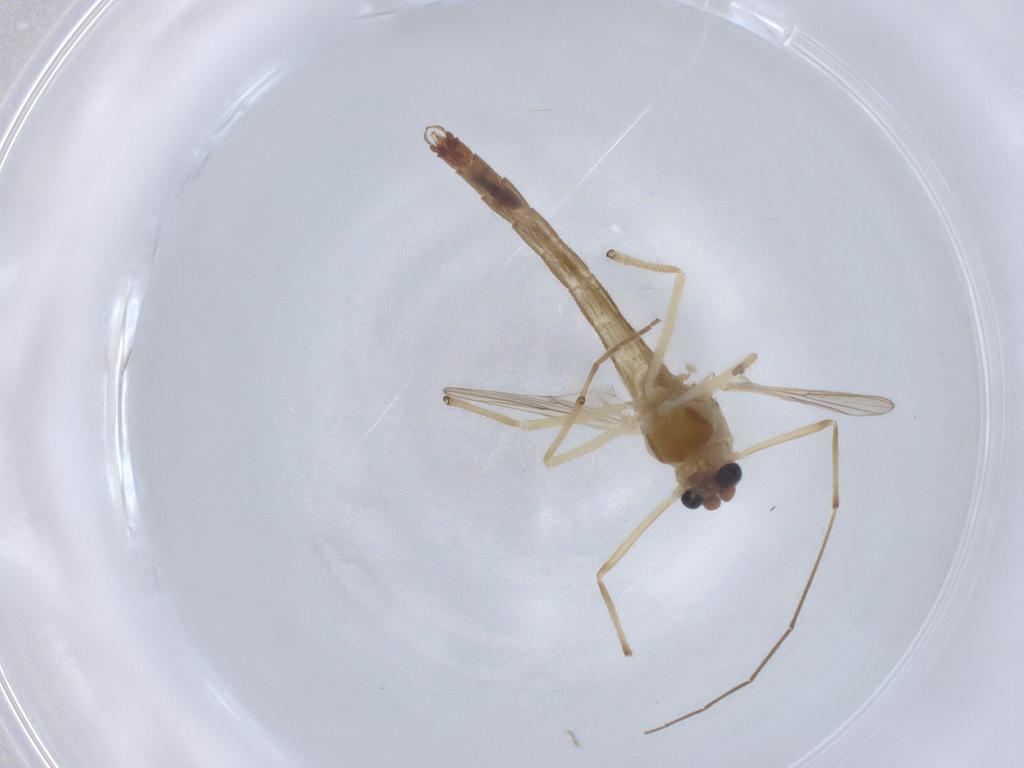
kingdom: Animalia
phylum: Arthropoda
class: Insecta
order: Diptera
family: Chironomidae
